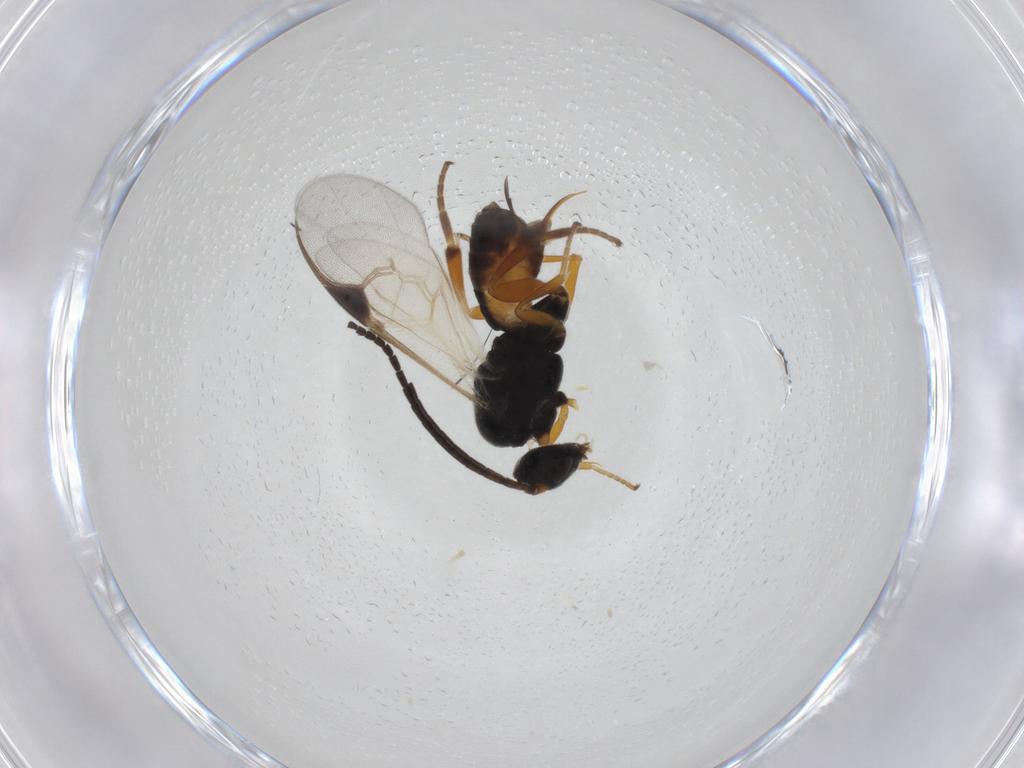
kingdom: Animalia
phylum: Arthropoda
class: Insecta
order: Hymenoptera
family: Braconidae
